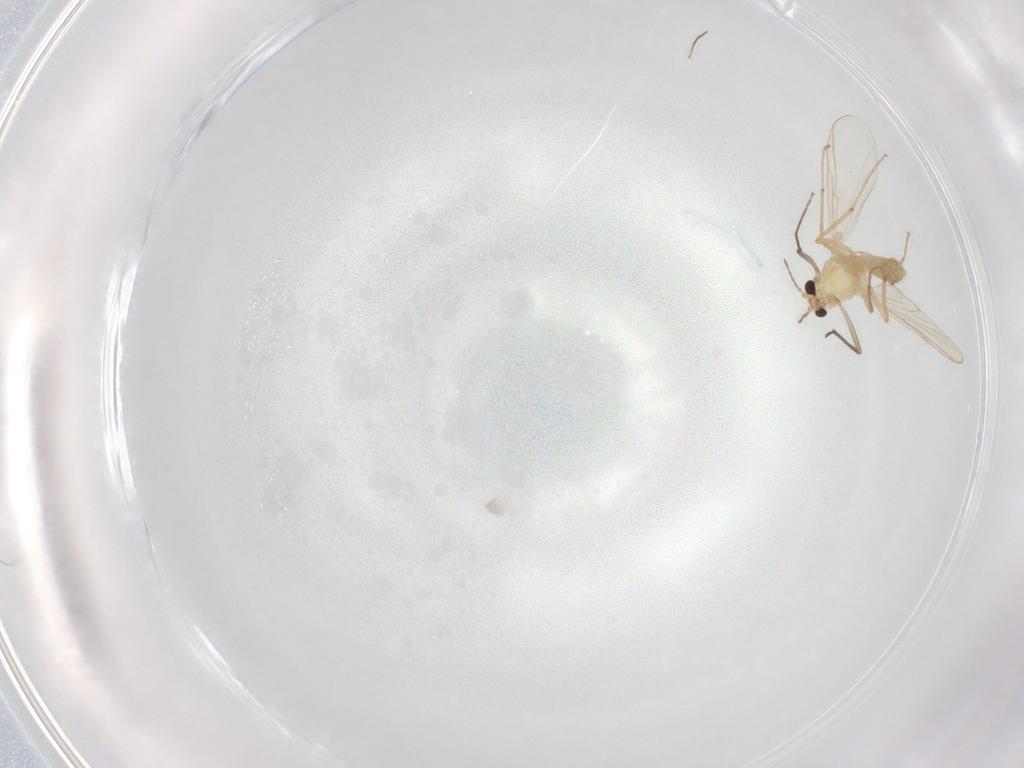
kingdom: Animalia
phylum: Arthropoda
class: Insecta
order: Diptera
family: Chironomidae
